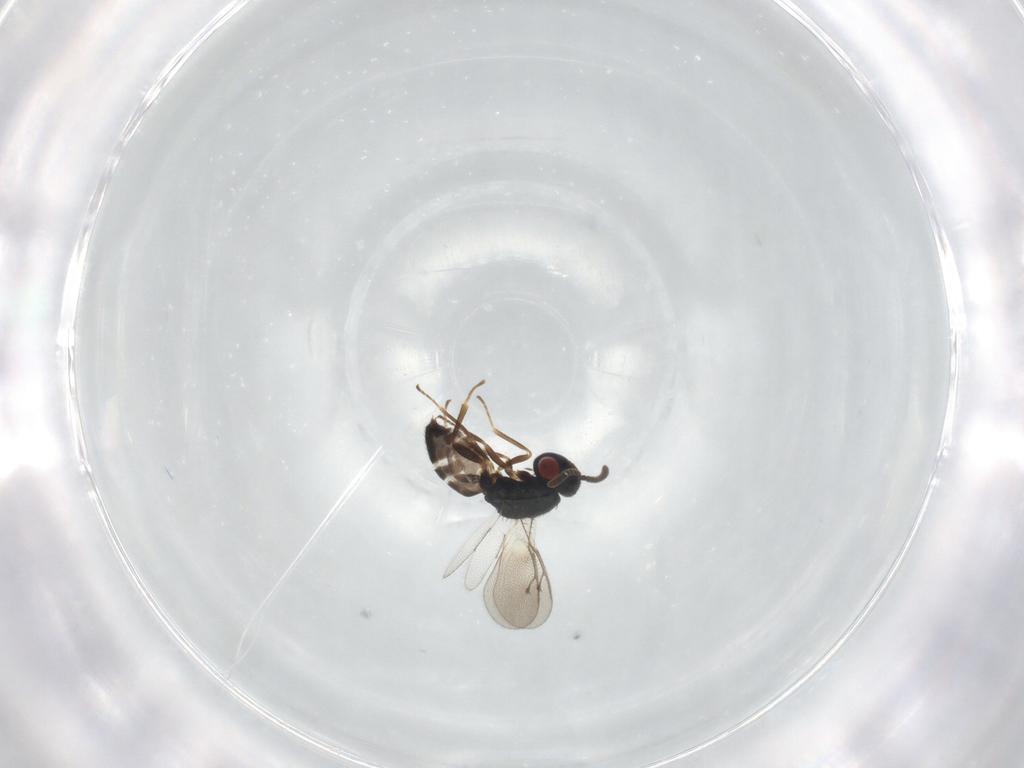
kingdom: Animalia
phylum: Arthropoda
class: Insecta
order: Hymenoptera
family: Pteromalidae
